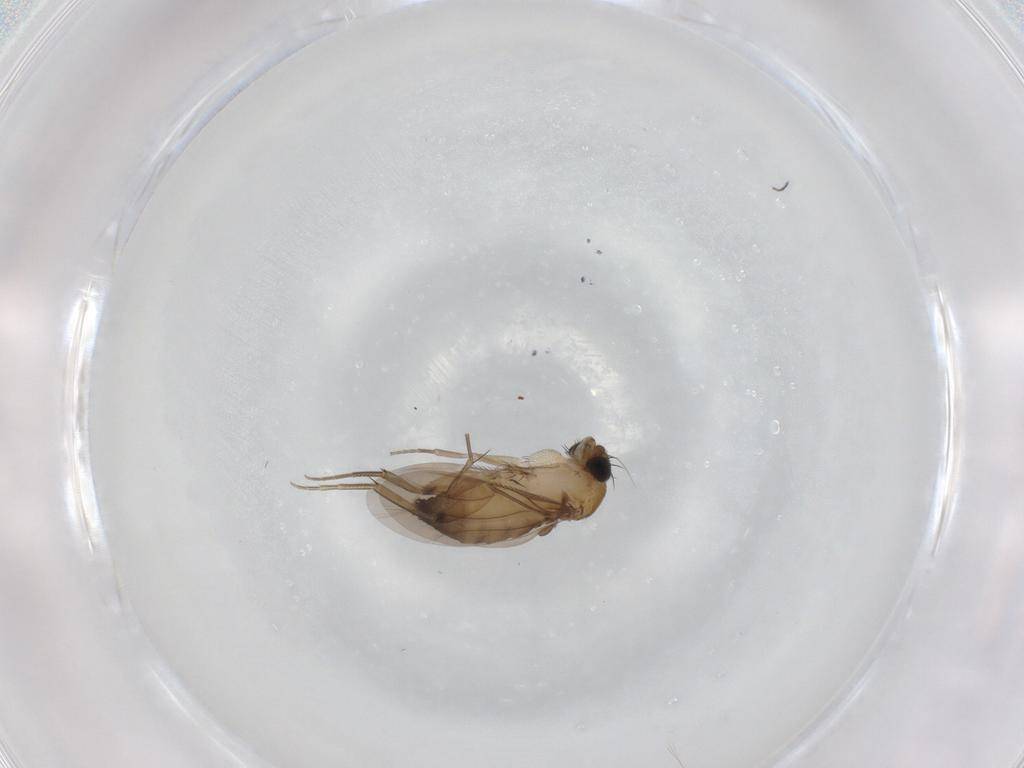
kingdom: Animalia
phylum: Arthropoda
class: Insecta
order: Diptera
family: Phoridae
